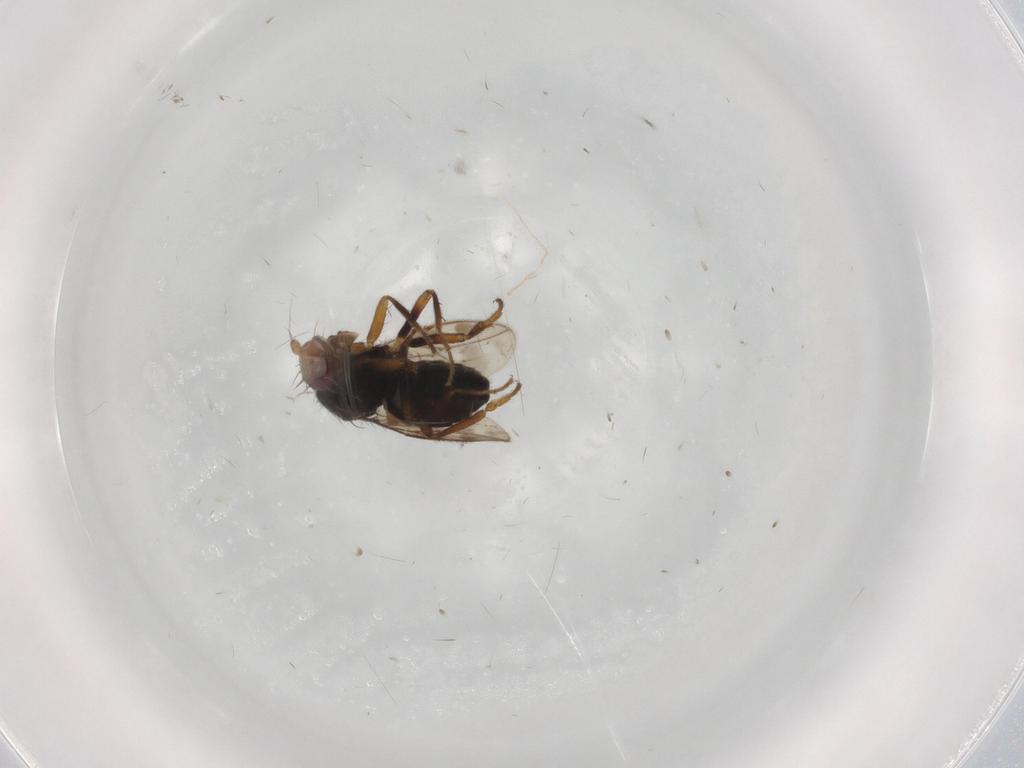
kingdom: Animalia
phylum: Arthropoda
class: Insecta
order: Diptera
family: Sphaeroceridae
